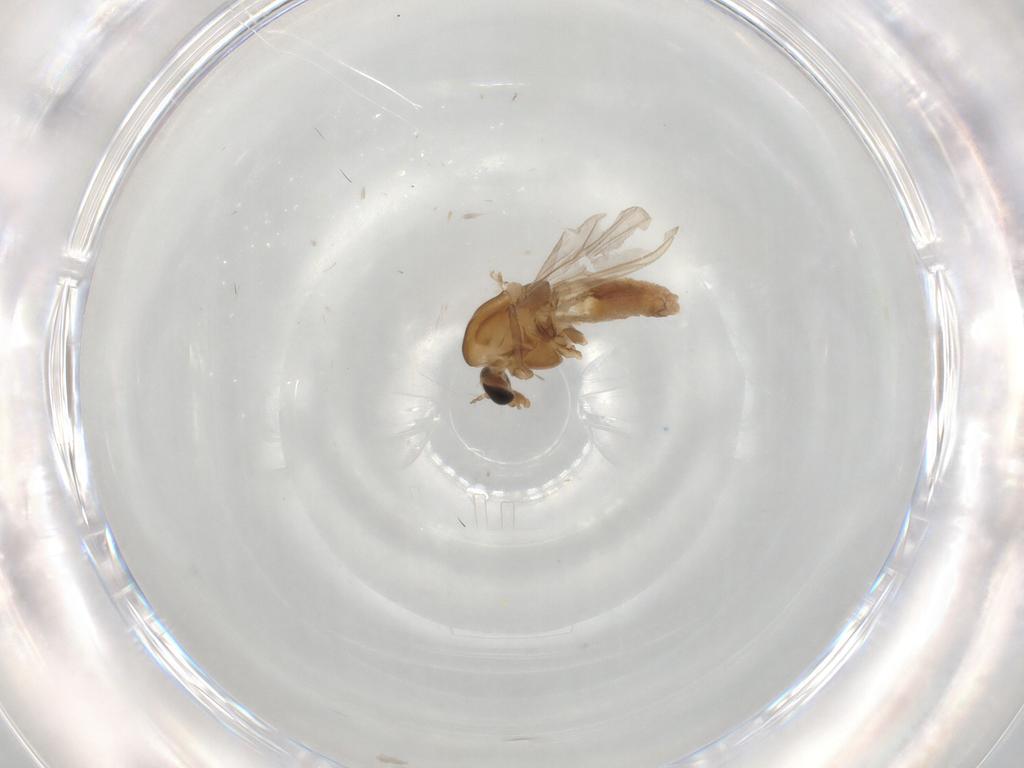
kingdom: Animalia
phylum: Arthropoda
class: Insecta
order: Diptera
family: Chironomidae
